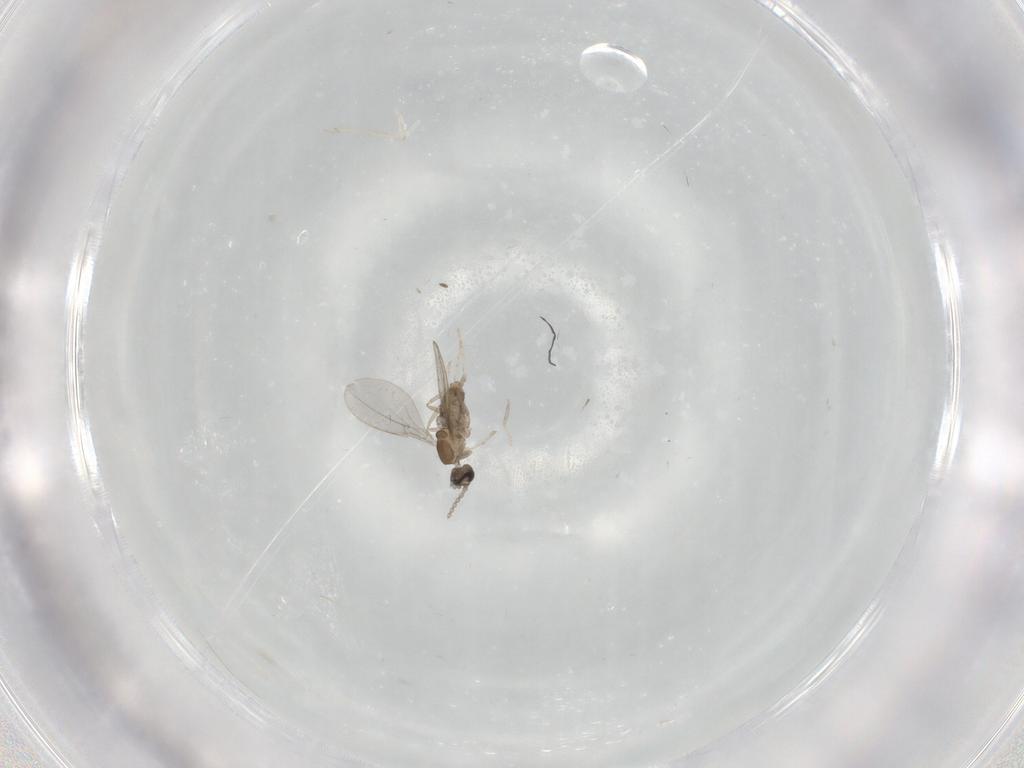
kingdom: Animalia
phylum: Arthropoda
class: Insecta
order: Diptera
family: Cecidomyiidae
